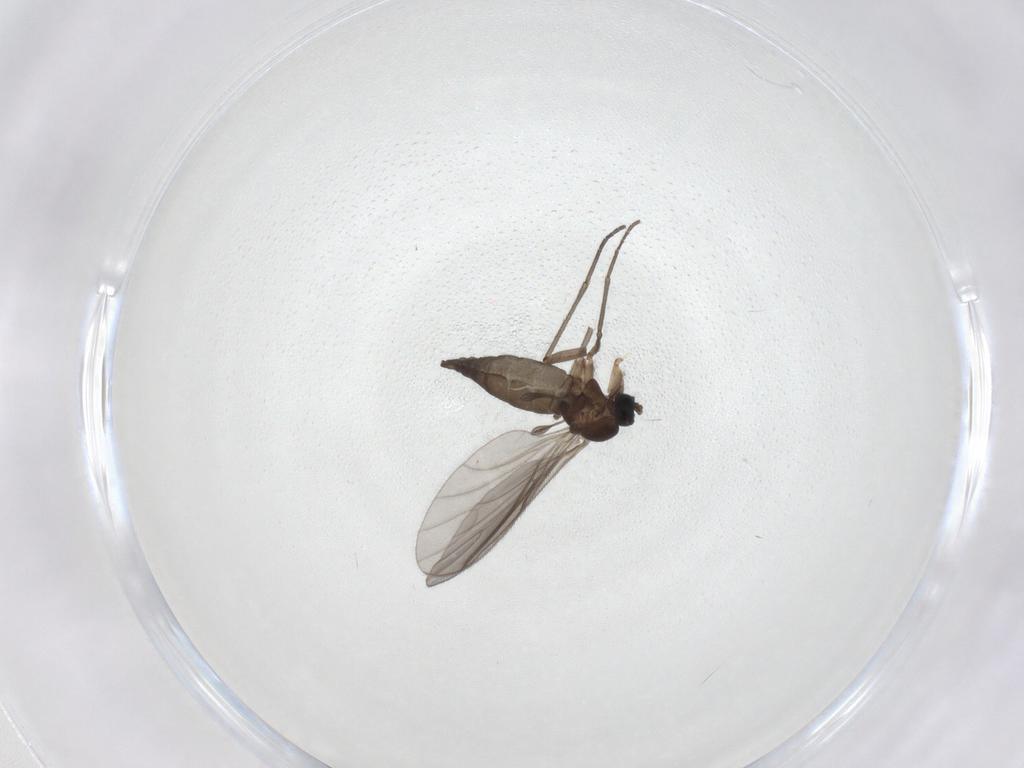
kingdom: Animalia
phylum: Arthropoda
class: Insecta
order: Diptera
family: Sciaridae
